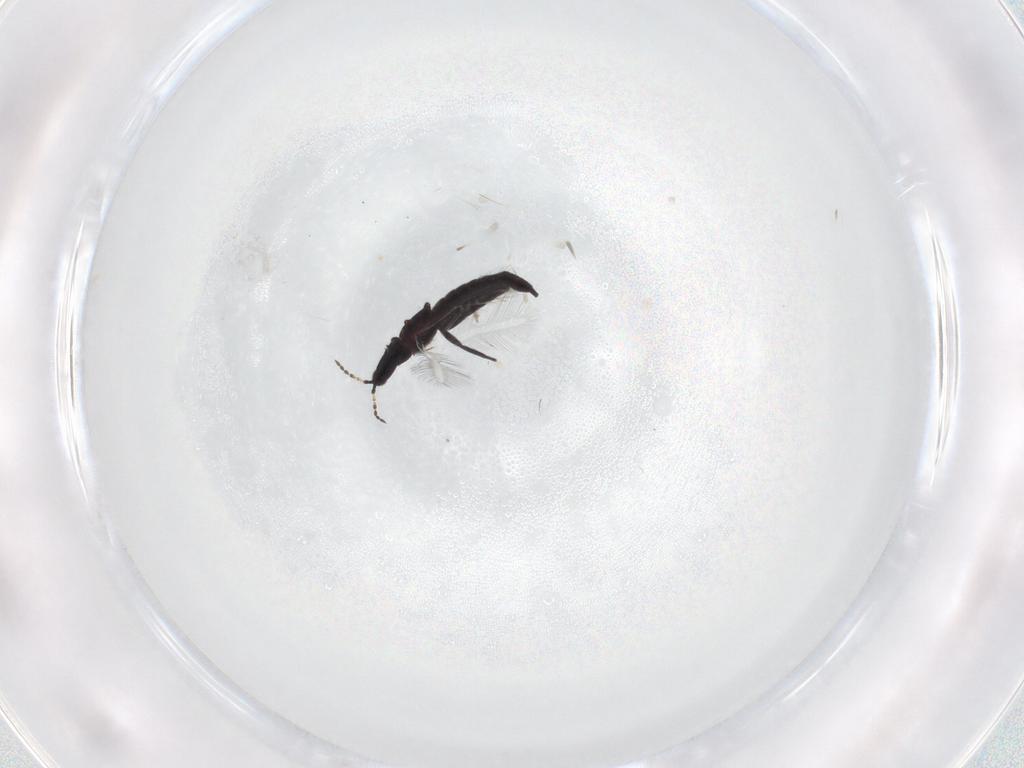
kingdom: Animalia
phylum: Arthropoda
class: Insecta
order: Thysanoptera
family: Phlaeothripidae
